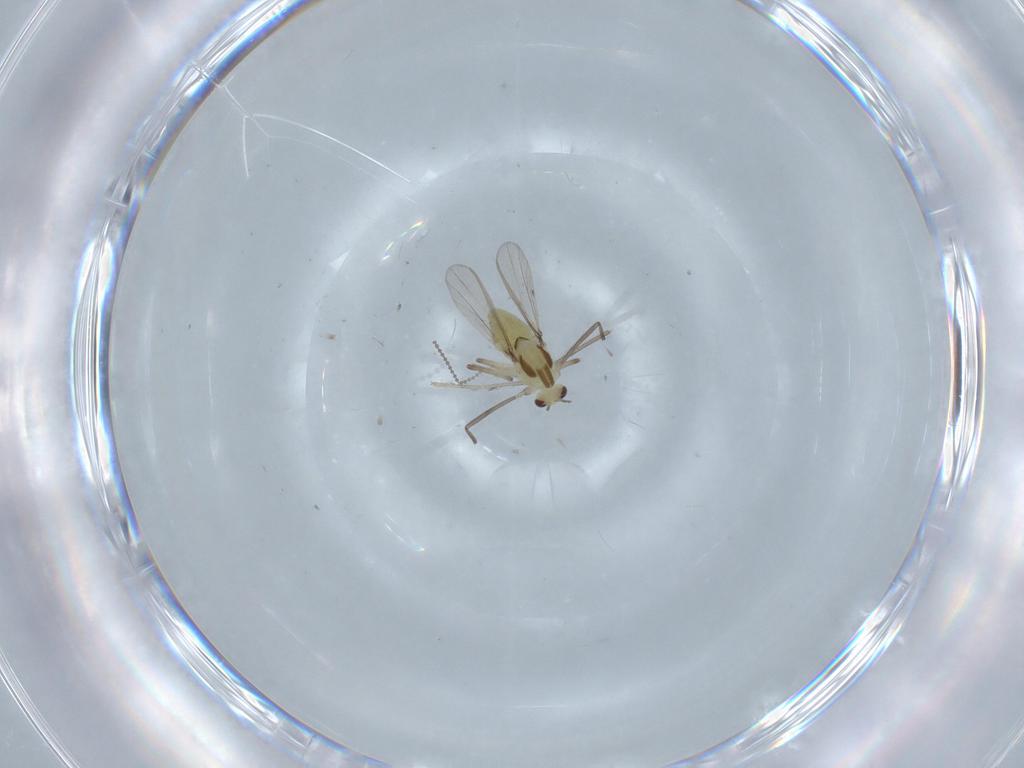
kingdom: Animalia
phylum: Arthropoda
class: Insecta
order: Diptera
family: Chironomidae
